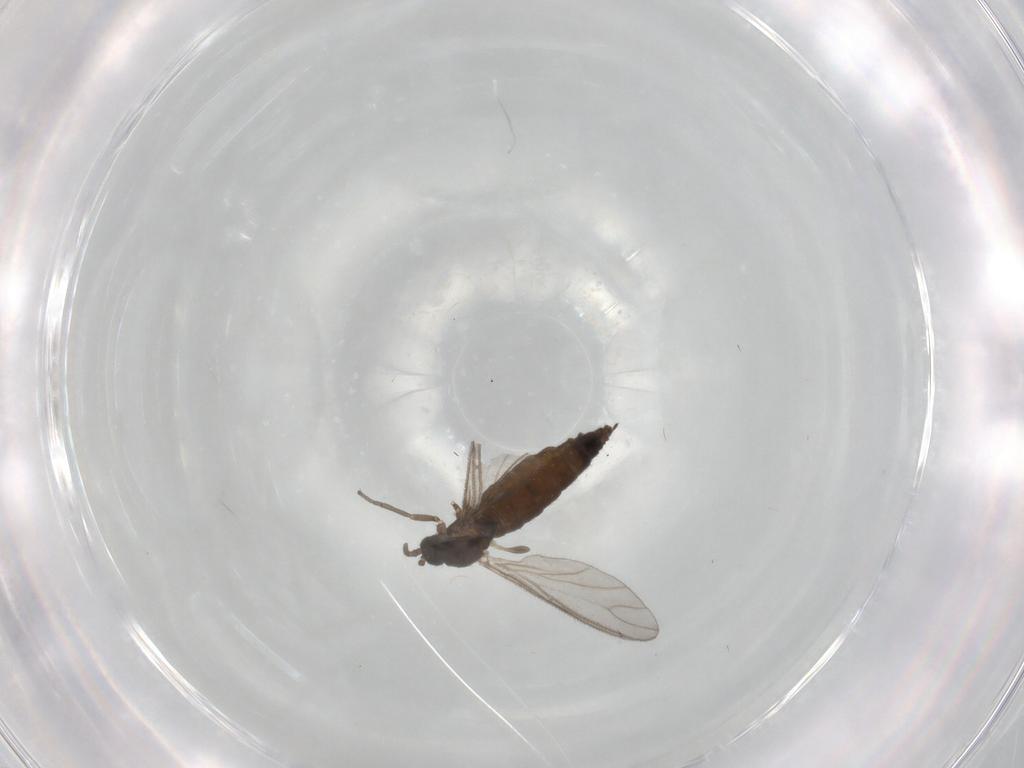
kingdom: Animalia
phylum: Arthropoda
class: Insecta
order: Diptera
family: Sciaridae
